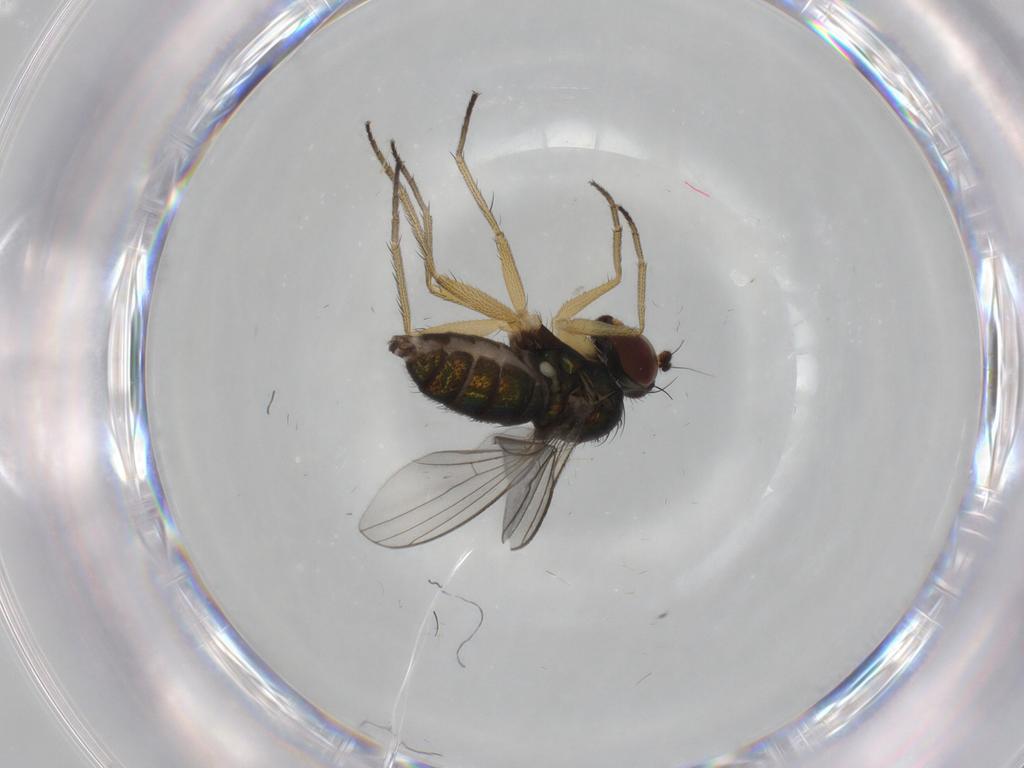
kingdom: Animalia
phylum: Arthropoda
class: Insecta
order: Diptera
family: Dolichopodidae
